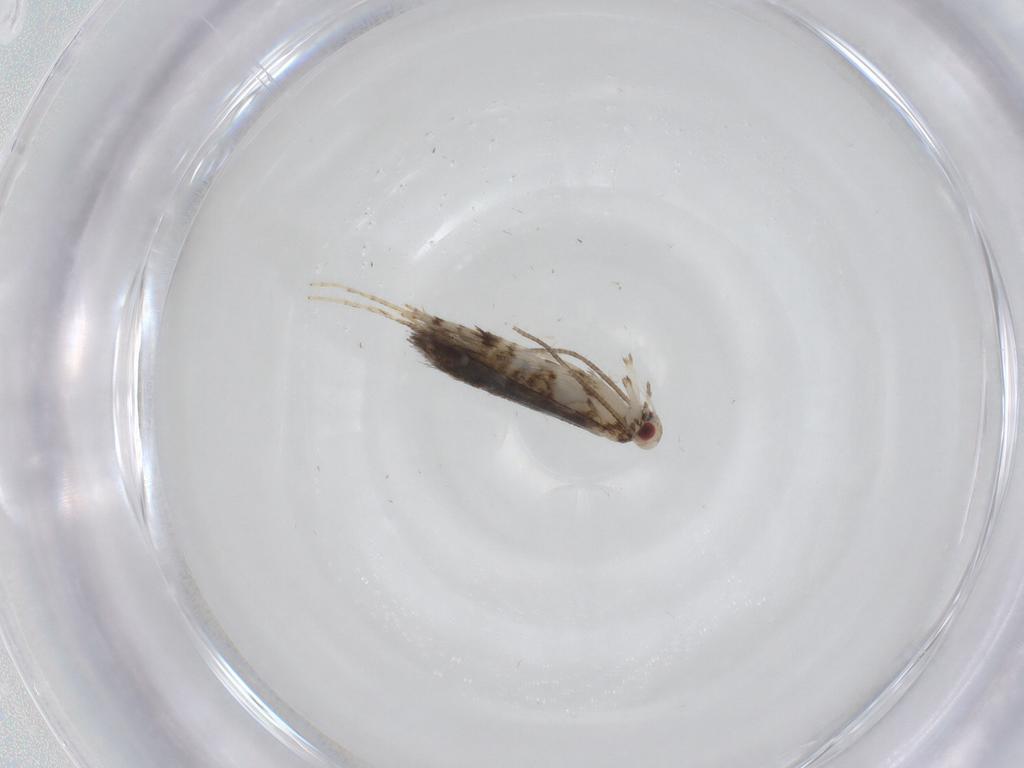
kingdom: Animalia
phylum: Arthropoda
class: Insecta
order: Lepidoptera
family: Gracillariidae
